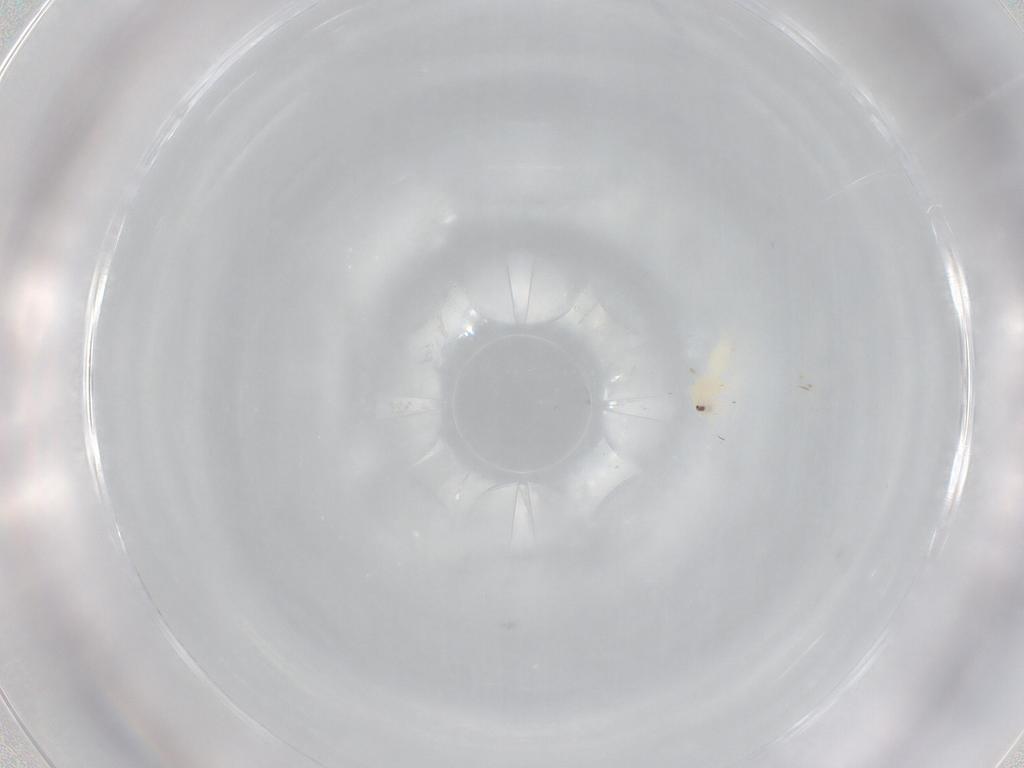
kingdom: Animalia
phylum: Arthropoda
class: Insecta
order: Hemiptera
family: Aleyrodidae
